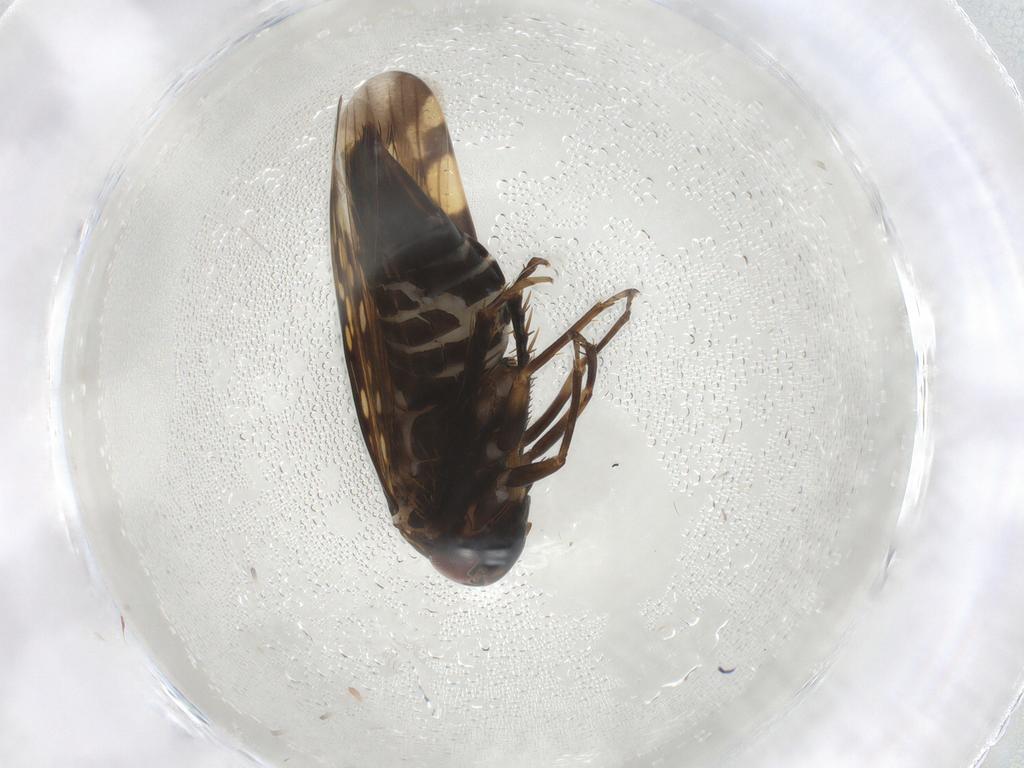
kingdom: Animalia
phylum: Arthropoda
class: Insecta
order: Hemiptera
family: Cicadellidae
